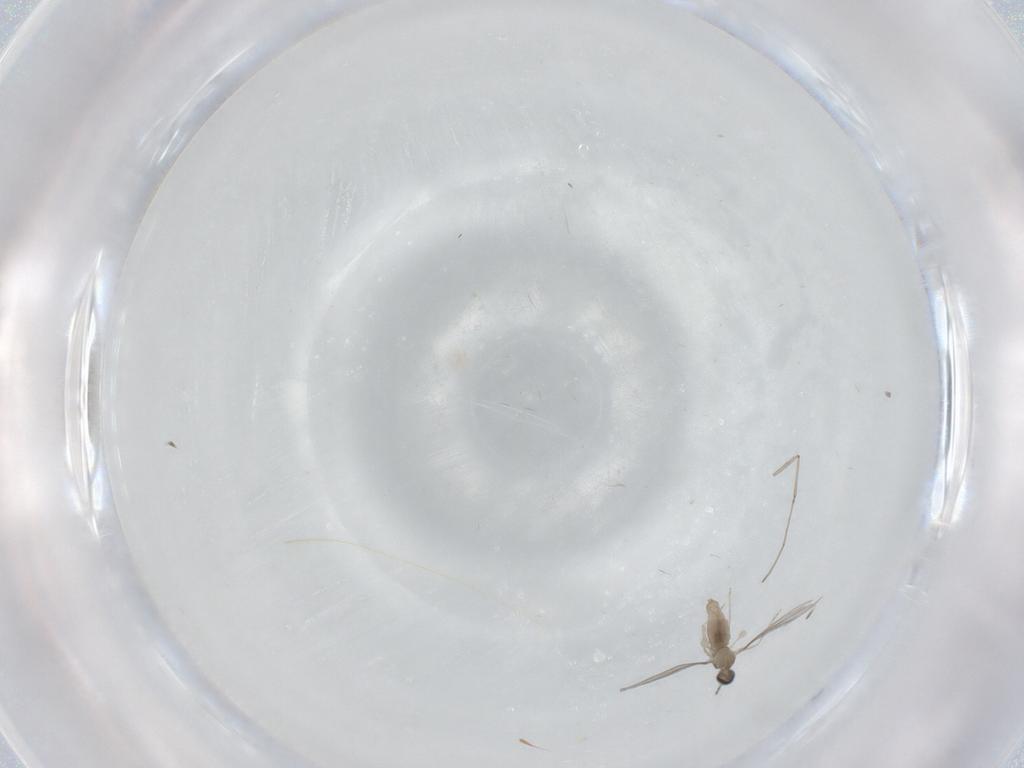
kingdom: Animalia
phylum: Arthropoda
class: Insecta
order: Diptera
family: Cecidomyiidae
